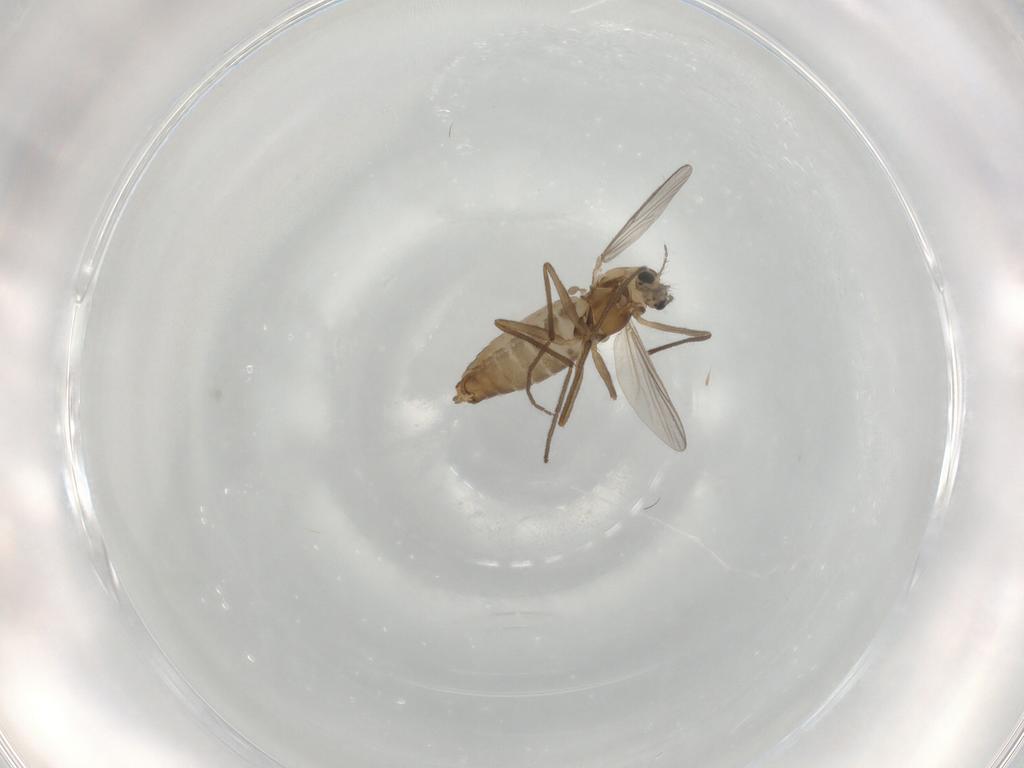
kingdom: Animalia
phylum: Arthropoda
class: Insecta
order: Diptera
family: Chironomidae
